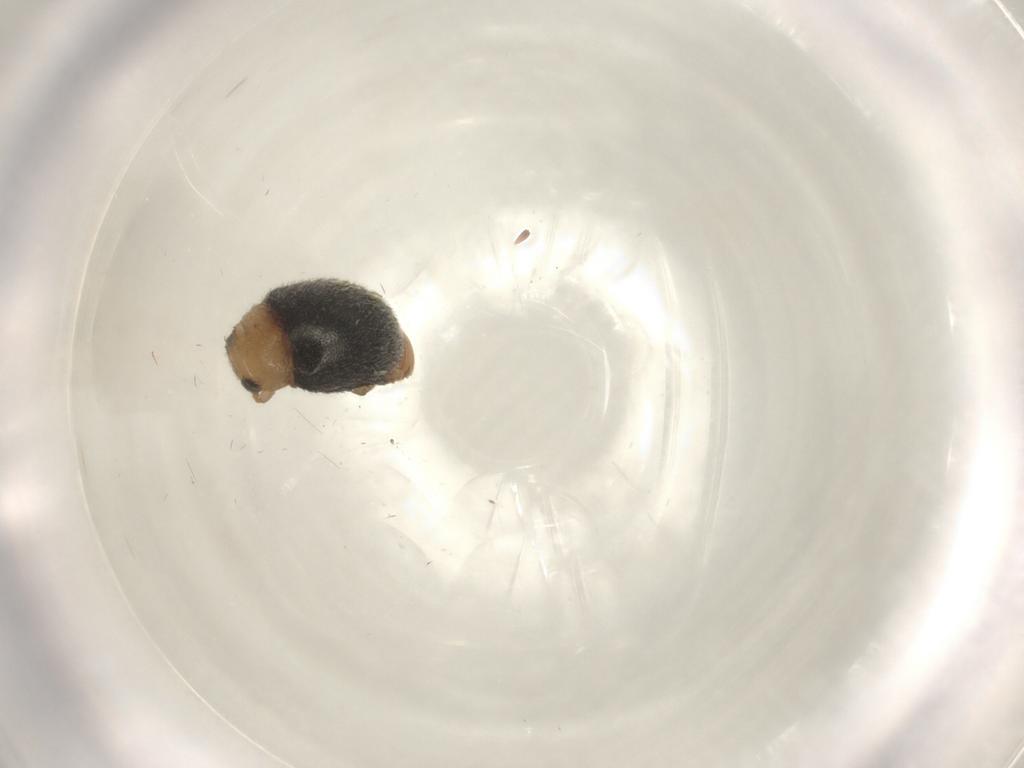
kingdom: Animalia
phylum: Arthropoda
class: Insecta
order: Coleoptera
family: Coccinellidae
